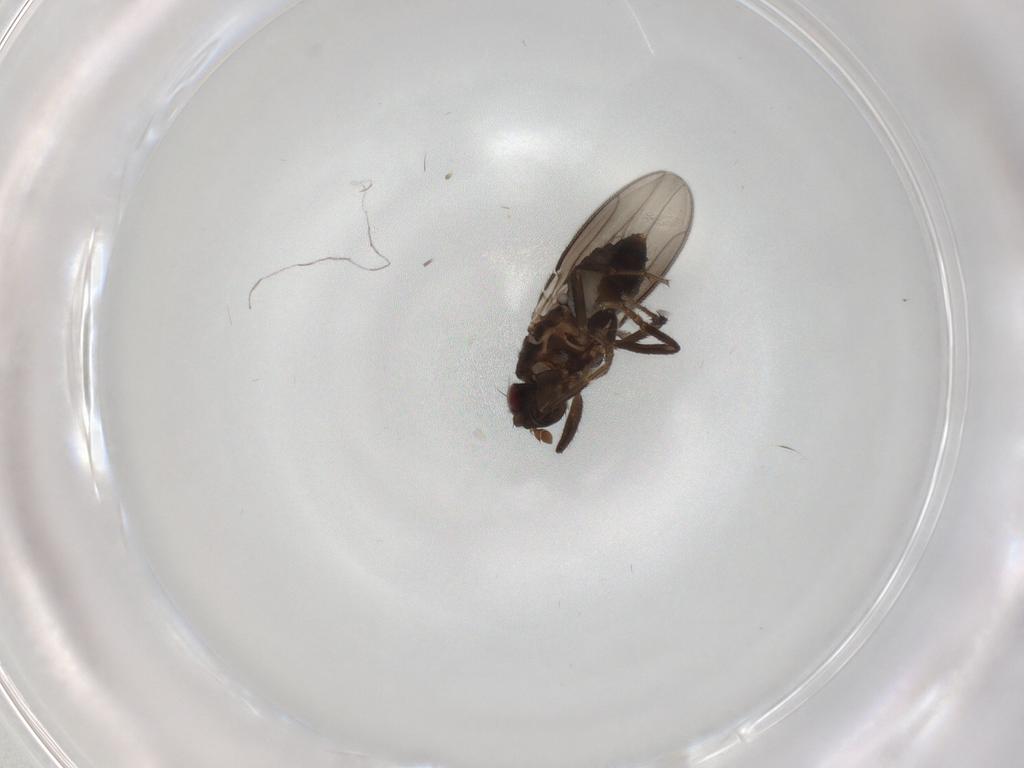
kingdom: Animalia
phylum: Arthropoda
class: Insecta
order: Diptera
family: Sphaeroceridae
